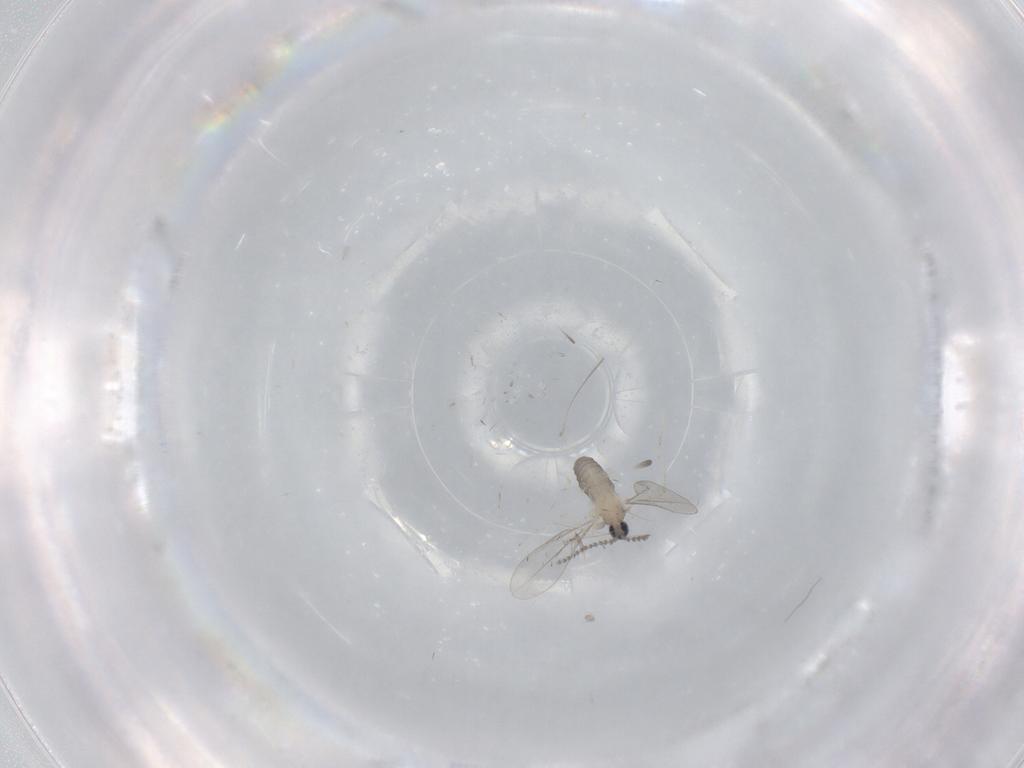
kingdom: Animalia
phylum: Arthropoda
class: Insecta
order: Diptera
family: Cecidomyiidae
